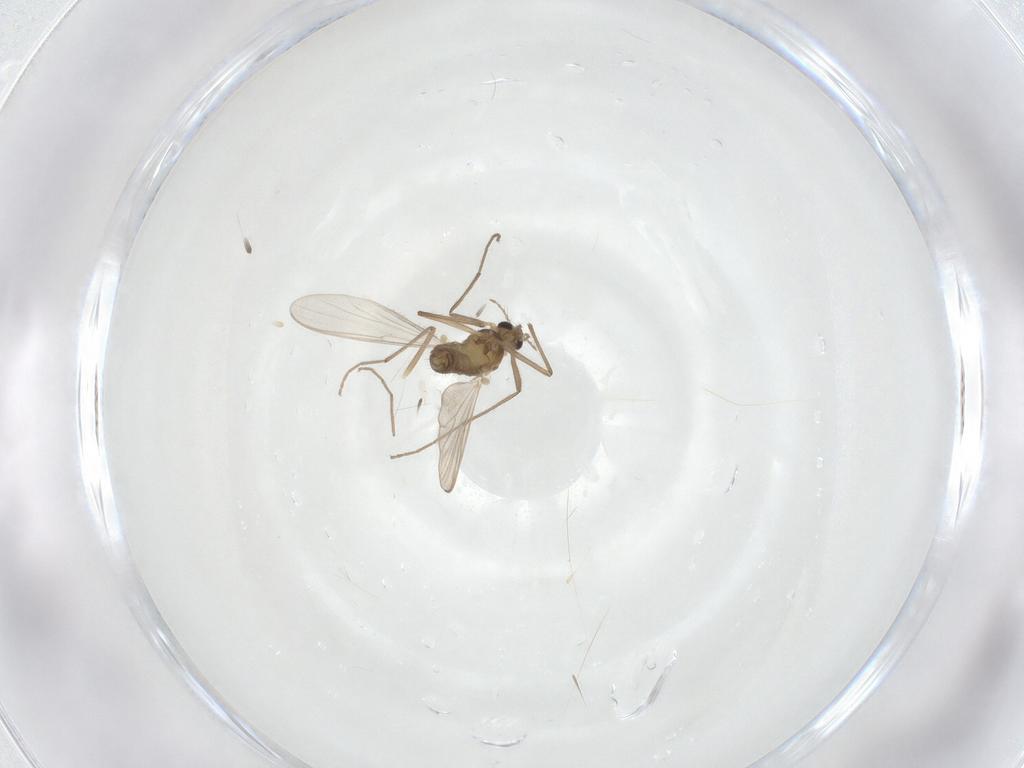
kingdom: Animalia
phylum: Arthropoda
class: Insecta
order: Diptera
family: Chironomidae
